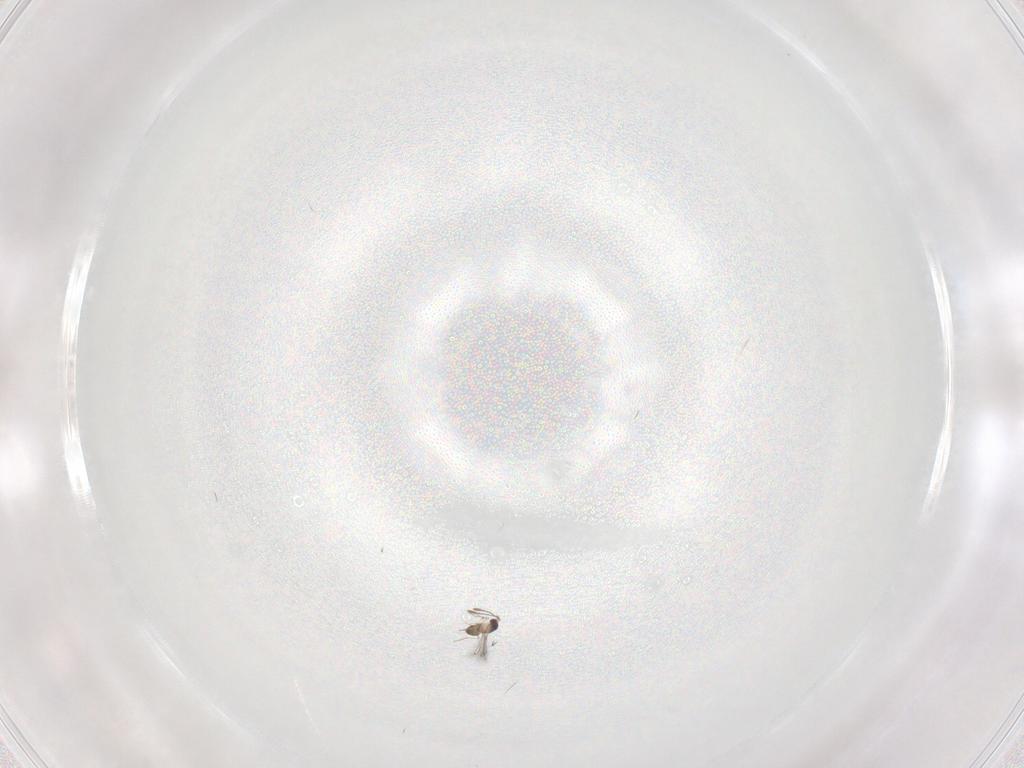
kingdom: Animalia
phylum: Arthropoda
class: Insecta
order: Hymenoptera
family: Mymaridae
